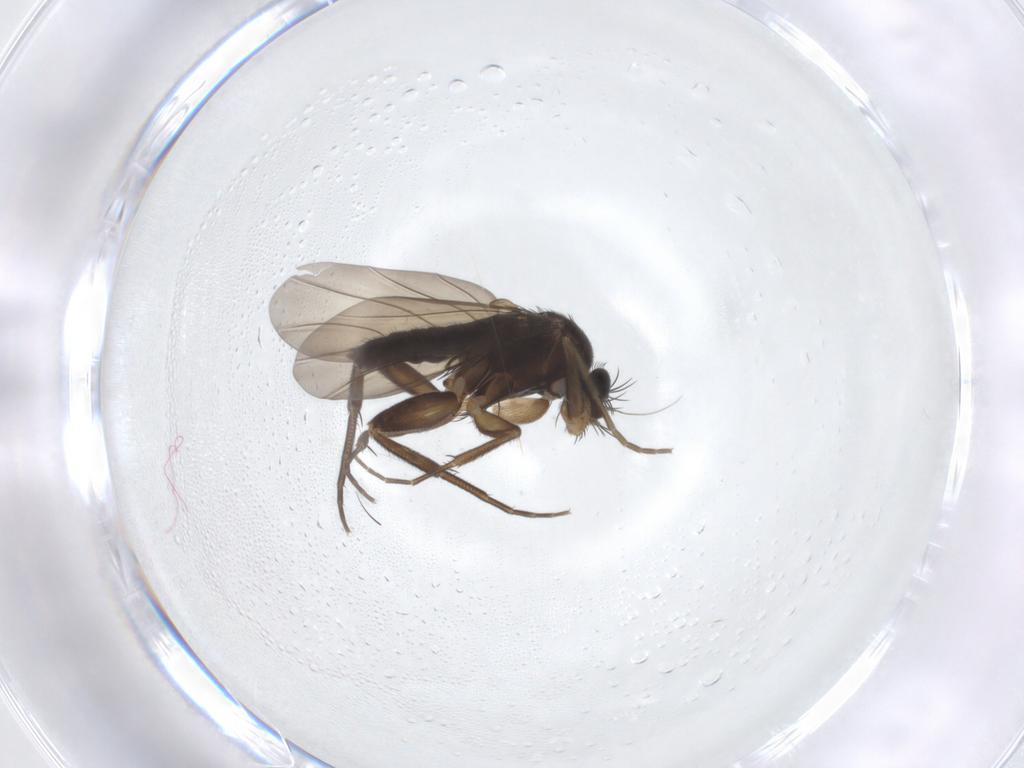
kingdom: Animalia
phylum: Arthropoda
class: Insecta
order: Diptera
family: Phoridae
